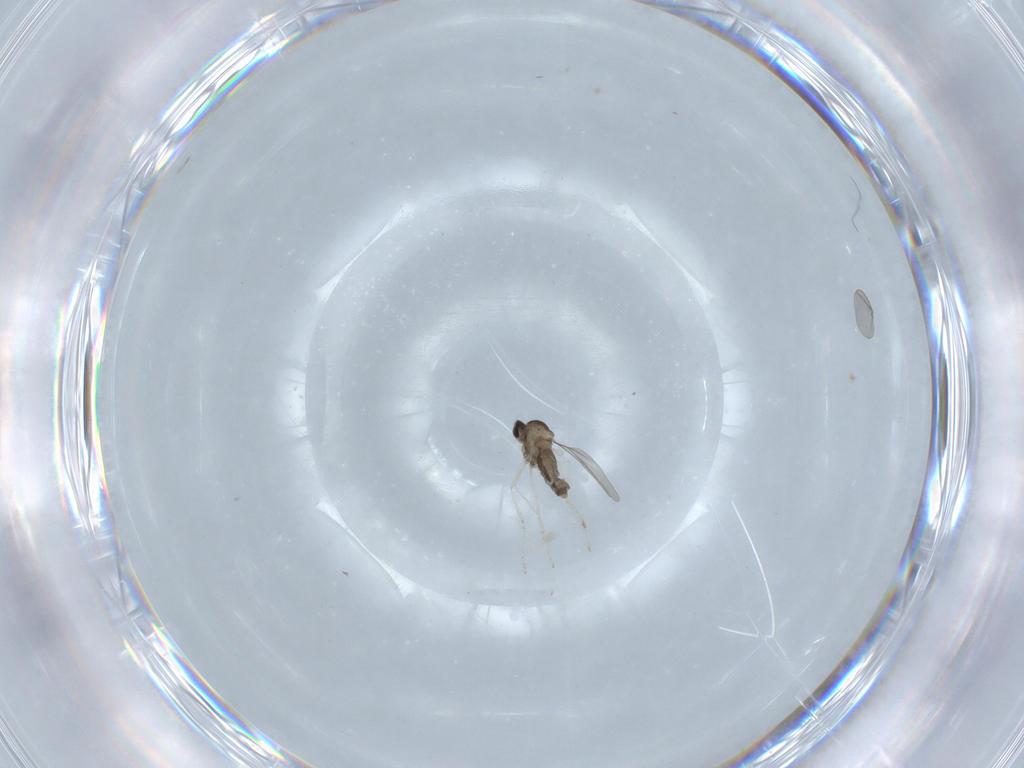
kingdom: Animalia
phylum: Arthropoda
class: Insecta
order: Diptera
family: Cecidomyiidae
